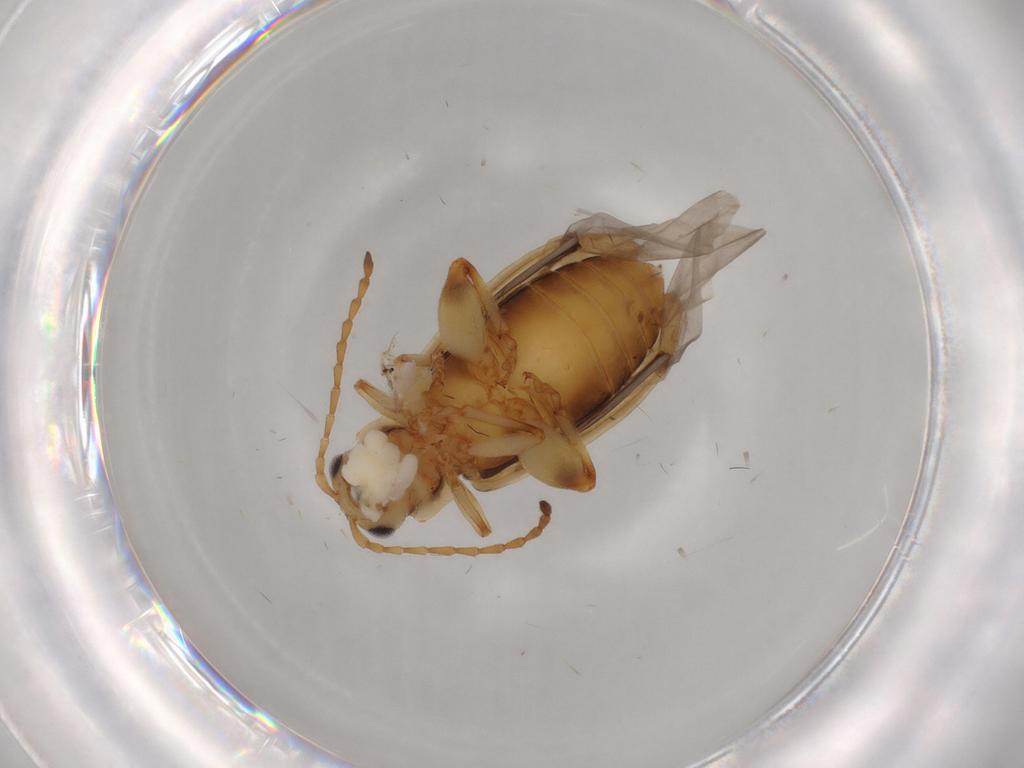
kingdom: Animalia
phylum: Arthropoda
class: Insecta
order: Coleoptera
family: Chrysomelidae
